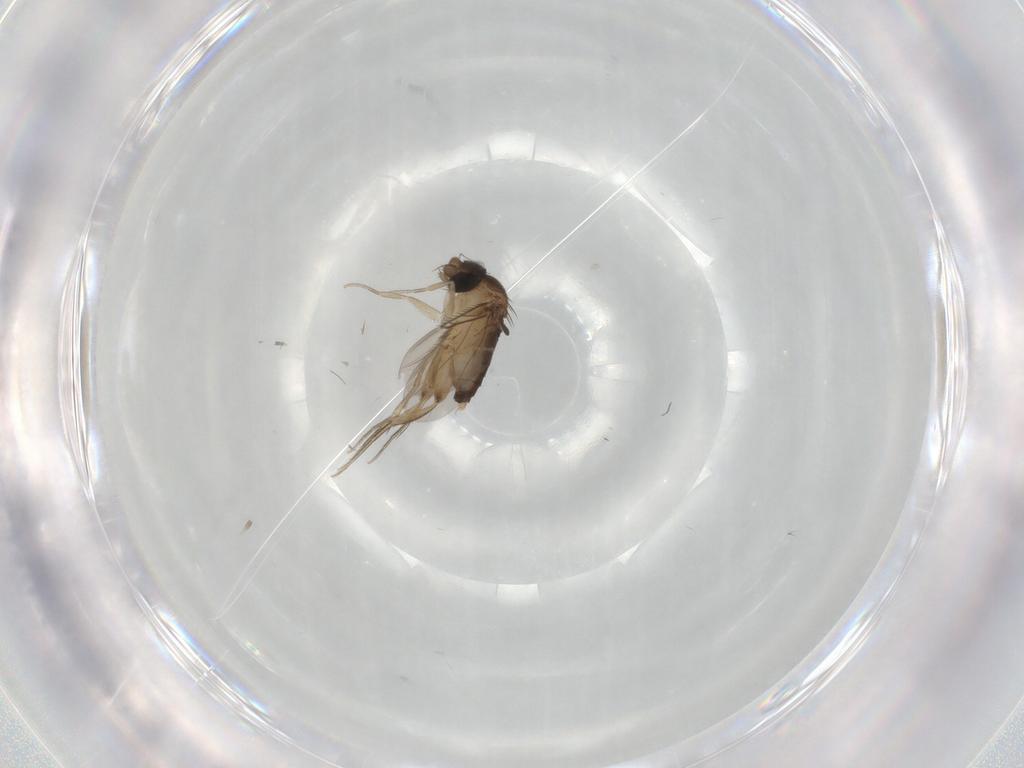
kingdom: Animalia
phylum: Arthropoda
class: Insecta
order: Diptera
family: Phoridae
